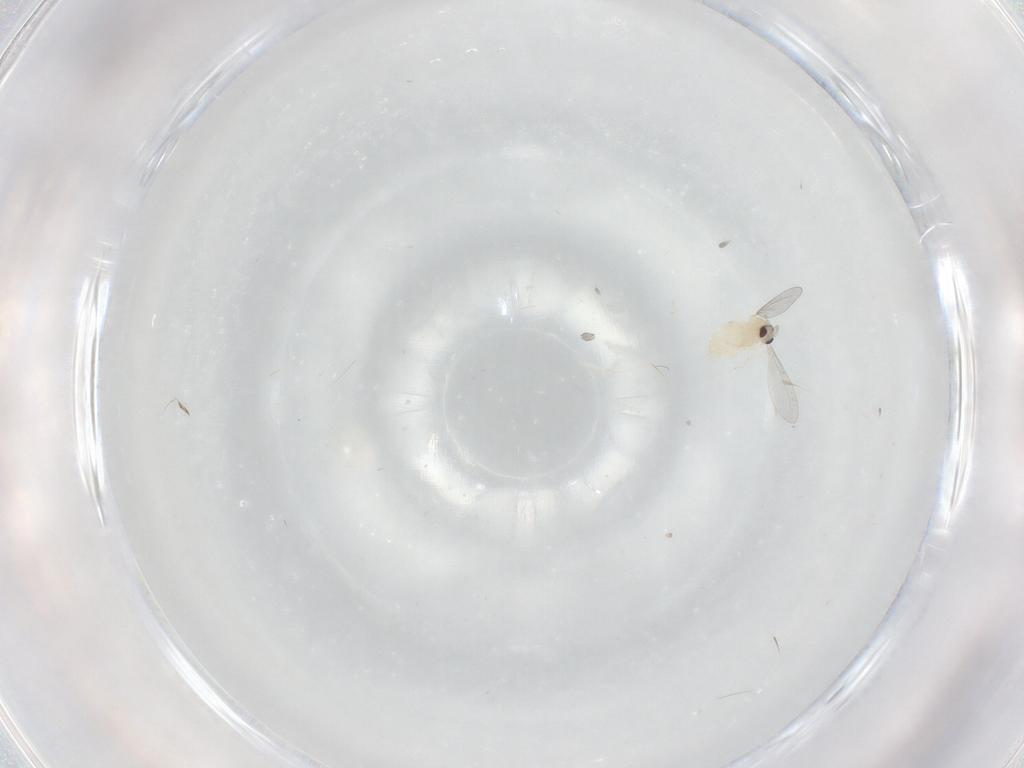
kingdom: Animalia
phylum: Arthropoda
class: Insecta
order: Diptera
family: Cecidomyiidae
